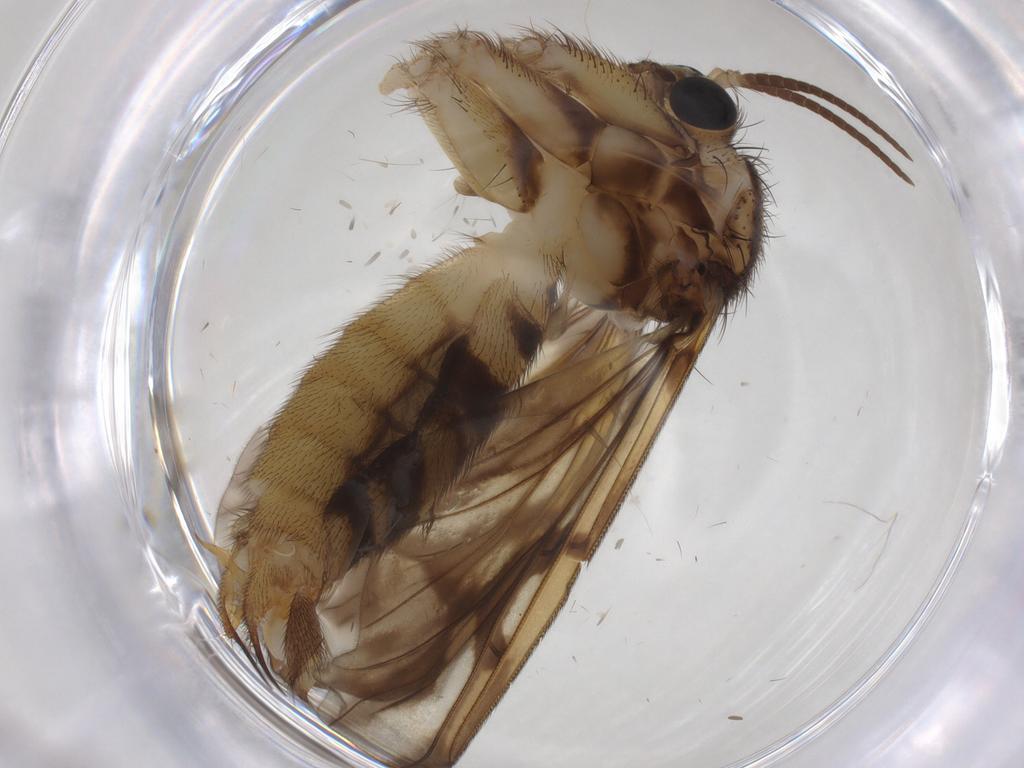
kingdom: Animalia
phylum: Arthropoda
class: Insecta
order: Diptera
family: Mycetophilidae
